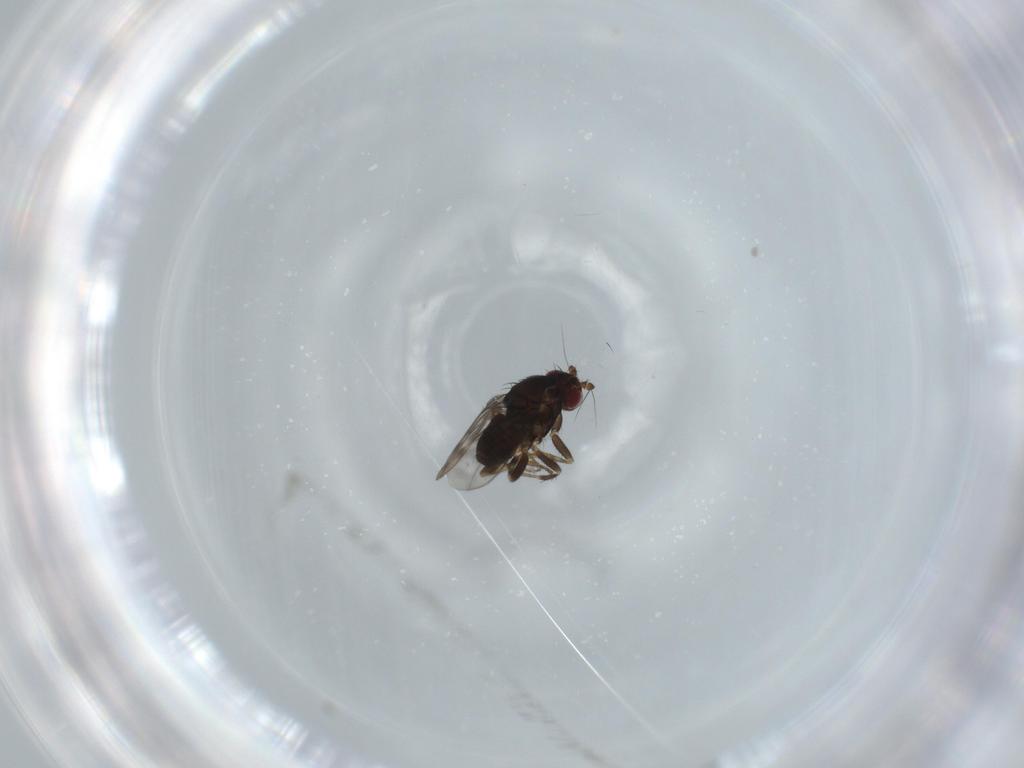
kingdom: Animalia
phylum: Arthropoda
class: Insecta
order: Diptera
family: Sphaeroceridae
